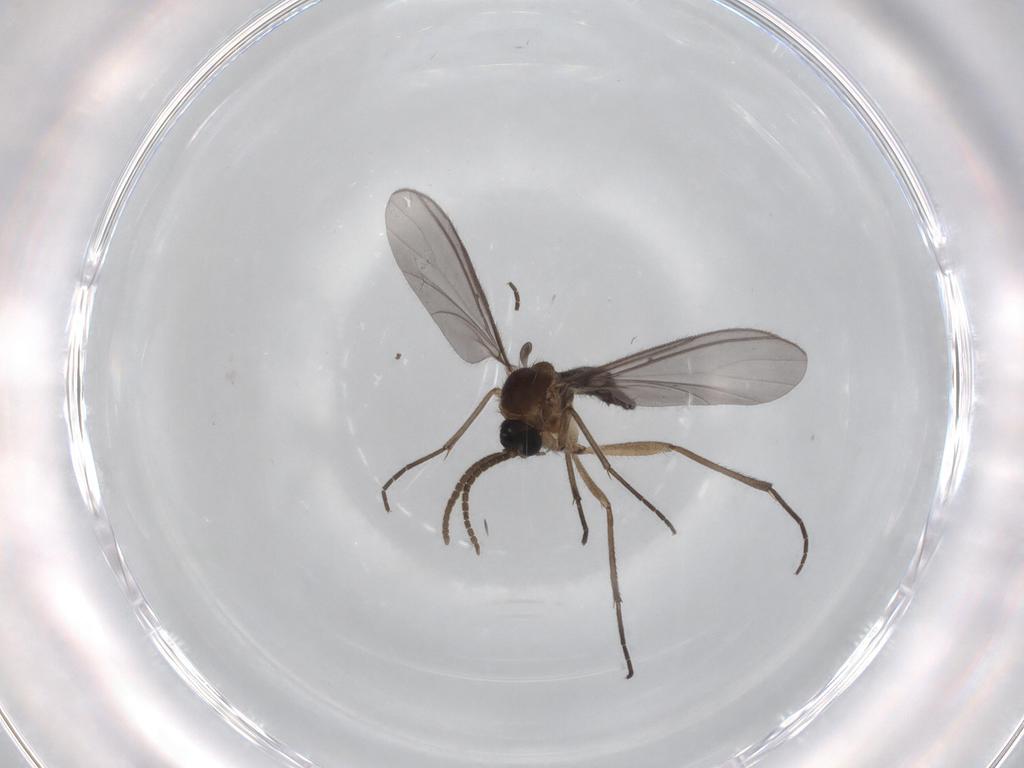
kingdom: Animalia
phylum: Arthropoda
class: Insecta
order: Diptera
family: Sciaridae
